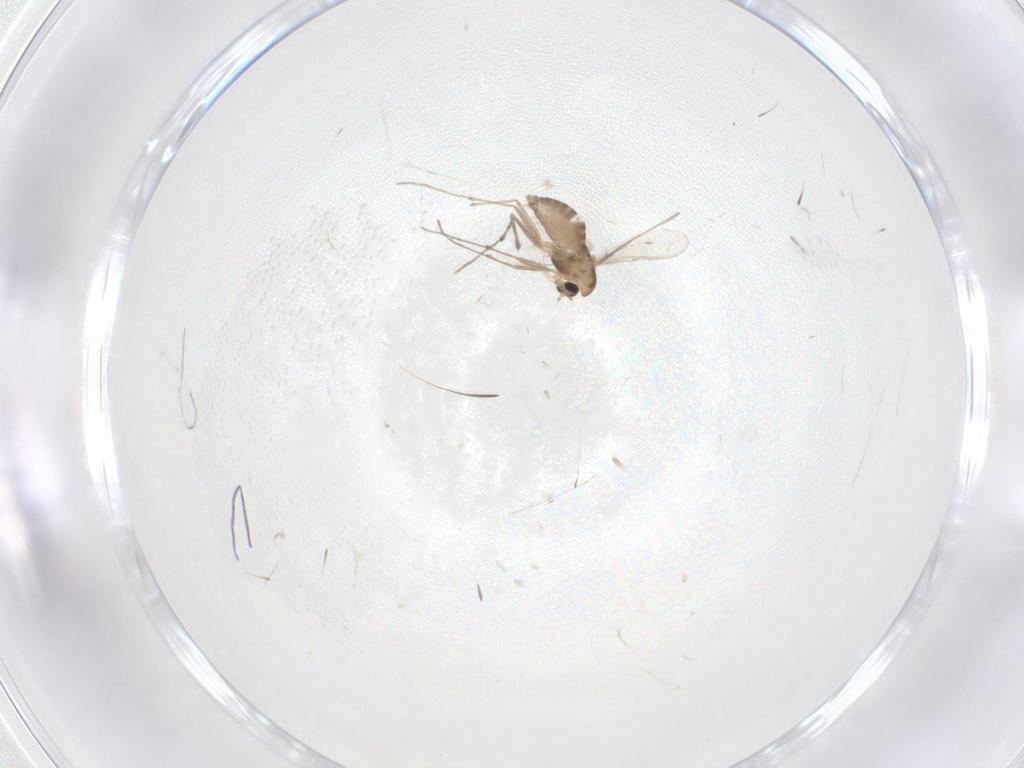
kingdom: Animalia
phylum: Arthropoda
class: Insecta
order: Diptera
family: Chironomidae
